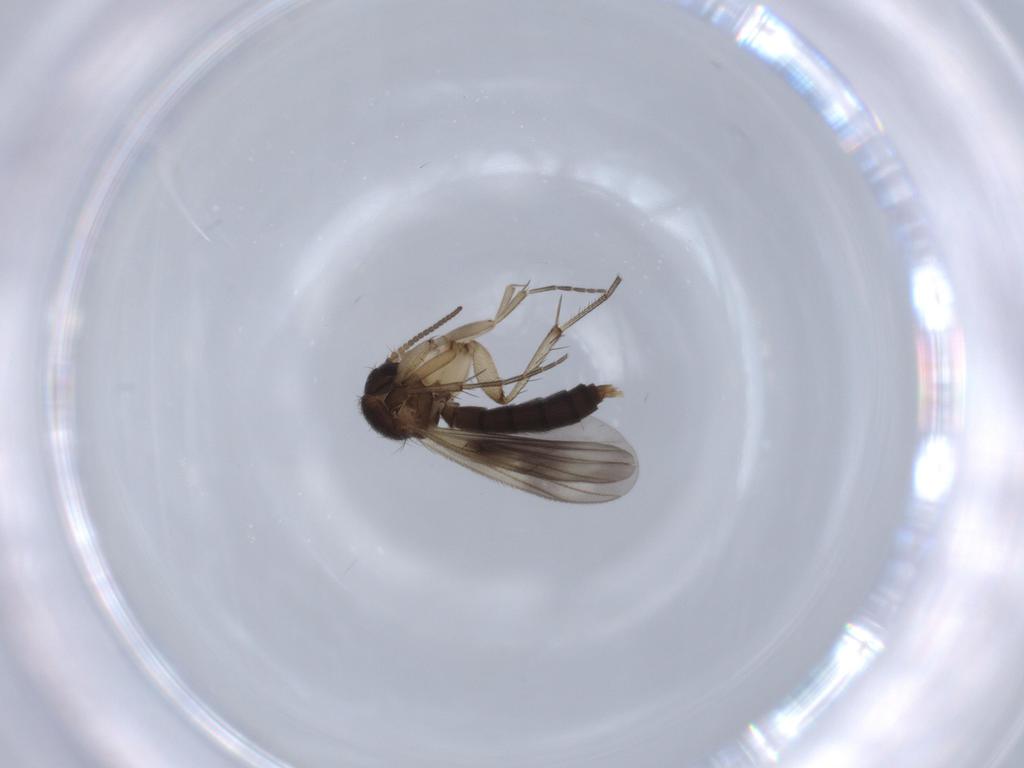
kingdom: Animalia
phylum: Arthropoda
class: Insecta
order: Diptera
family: Mycetophilidae
